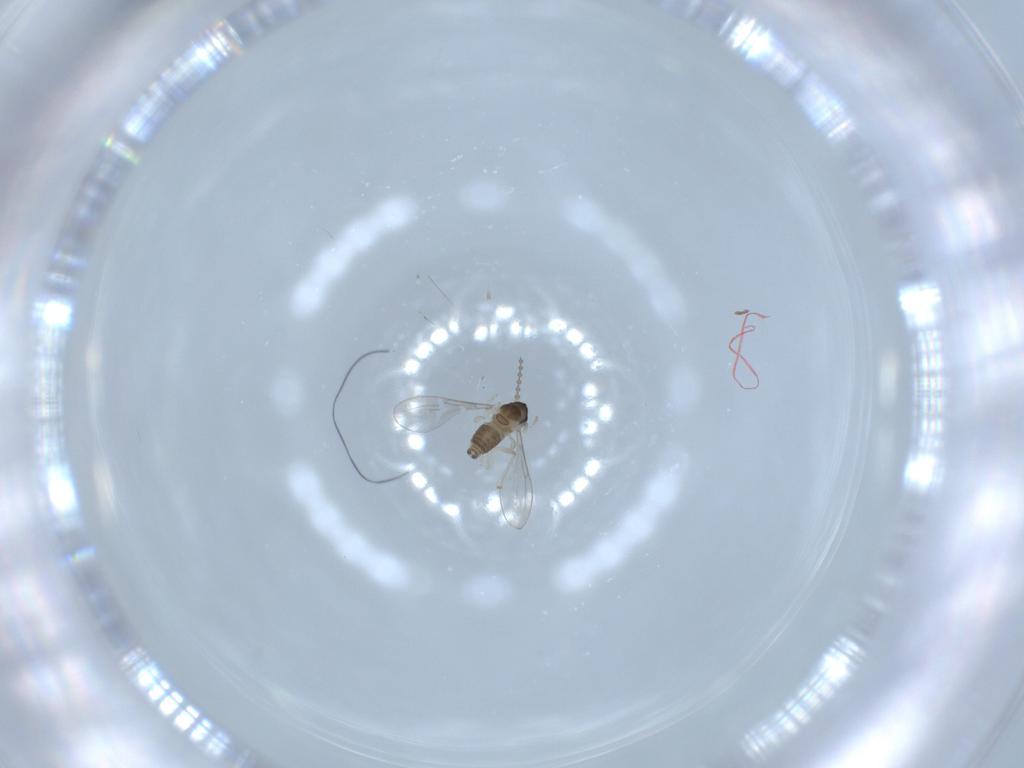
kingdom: Animalia
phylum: Arthropoda
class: Insecta
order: Diptera
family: Cecidomyiidae
